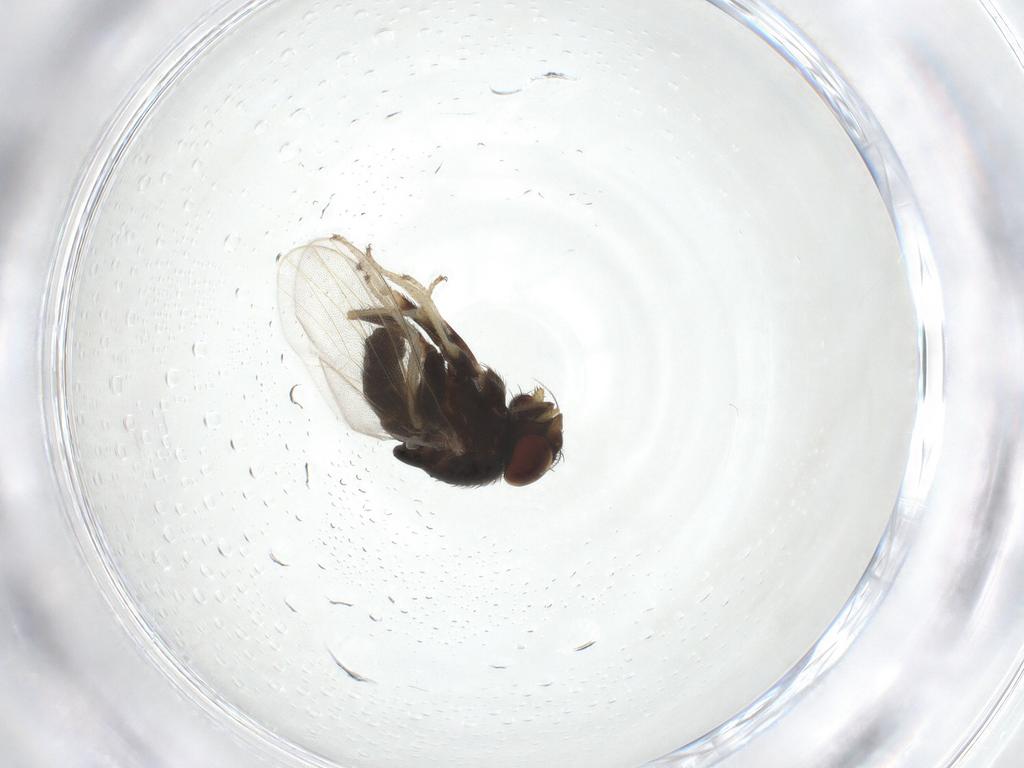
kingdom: Animalia
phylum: Arthropoda
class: Insecta
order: Diptera
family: Milichiidae
